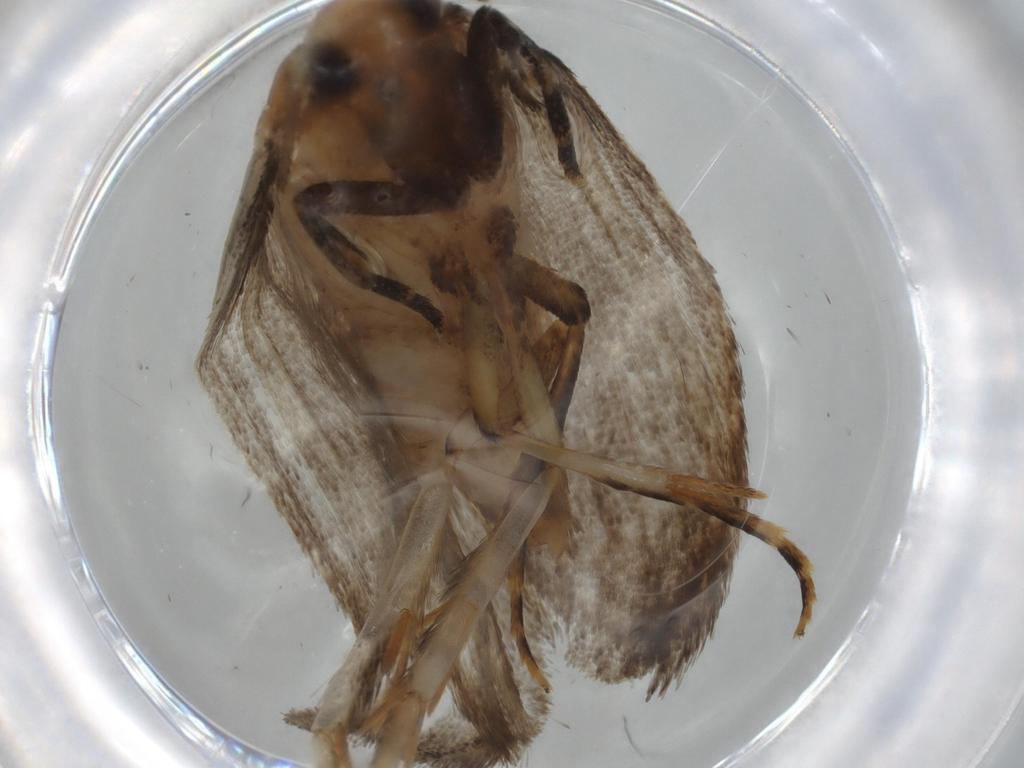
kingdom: Animalia
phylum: Arthropoda
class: Insecta
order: Lepidoptera
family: Oecophoridae
